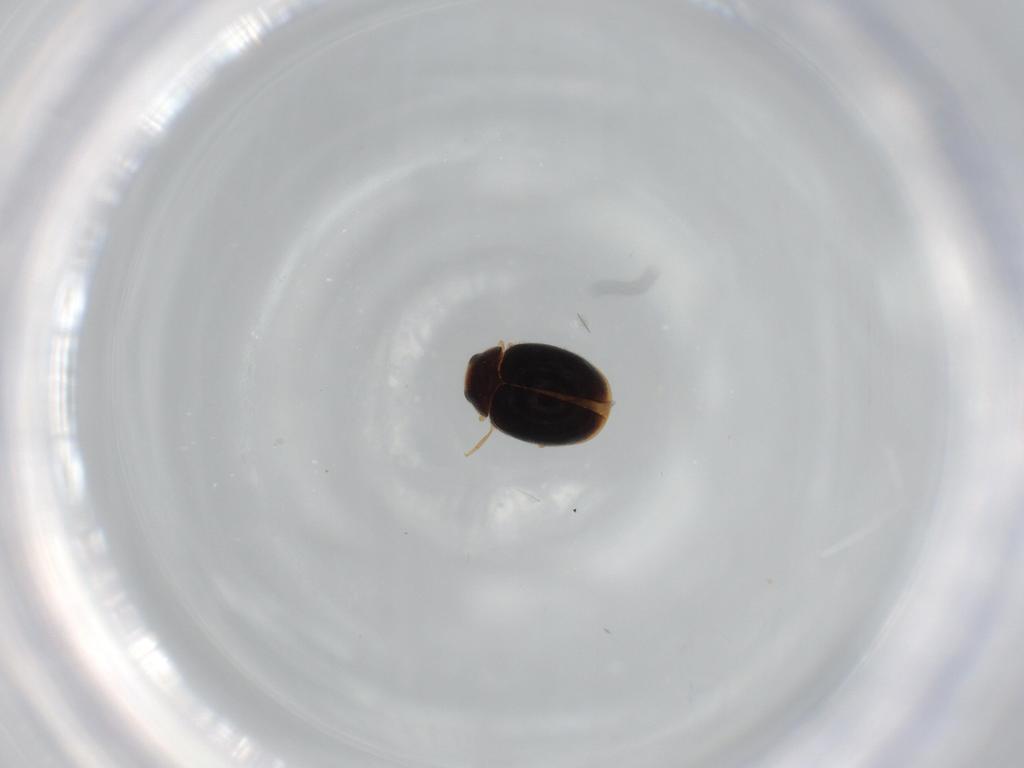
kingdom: Animalia
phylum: Arthropoda
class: Insecta
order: Coleoptera
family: Coccinellidae
